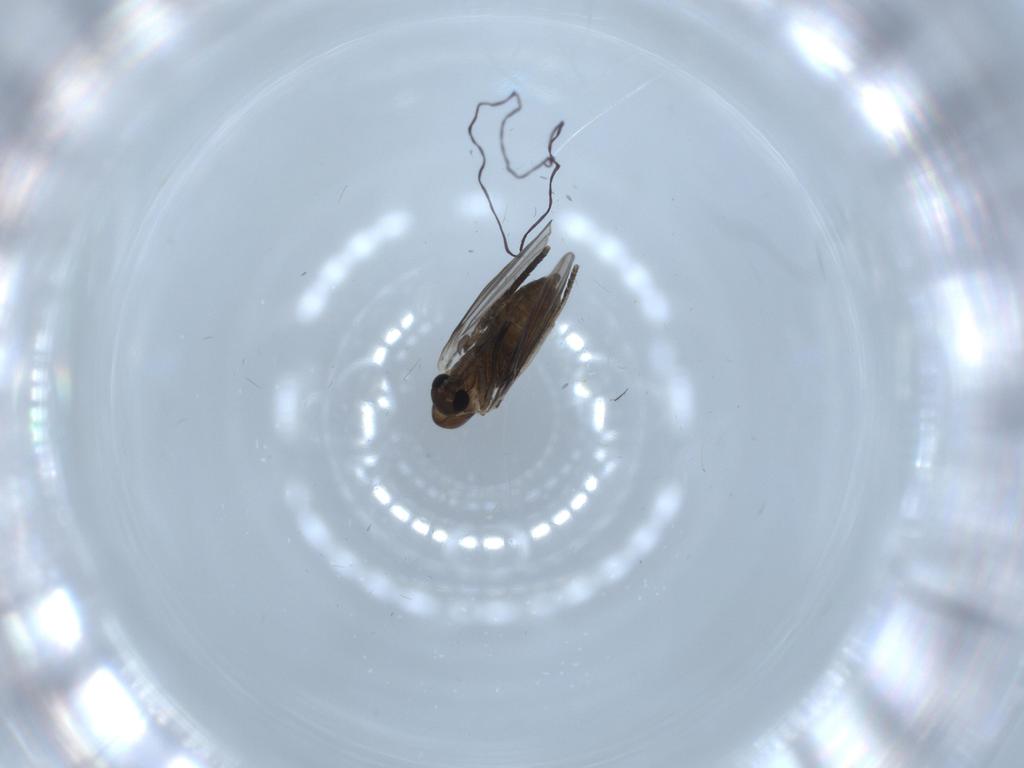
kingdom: Animalia
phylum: Arthropoda
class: Insecta
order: Diptera
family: Psychodidae
